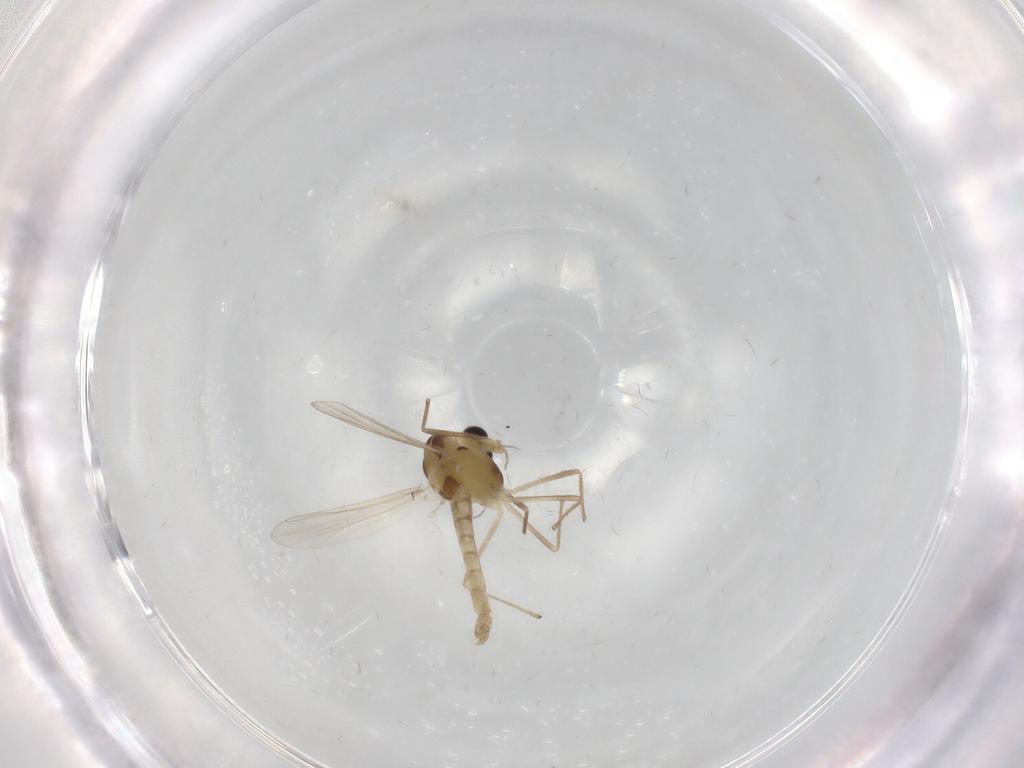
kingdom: Animalia
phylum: Arthropoda
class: Insecta
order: Diptera
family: Chironomidae
